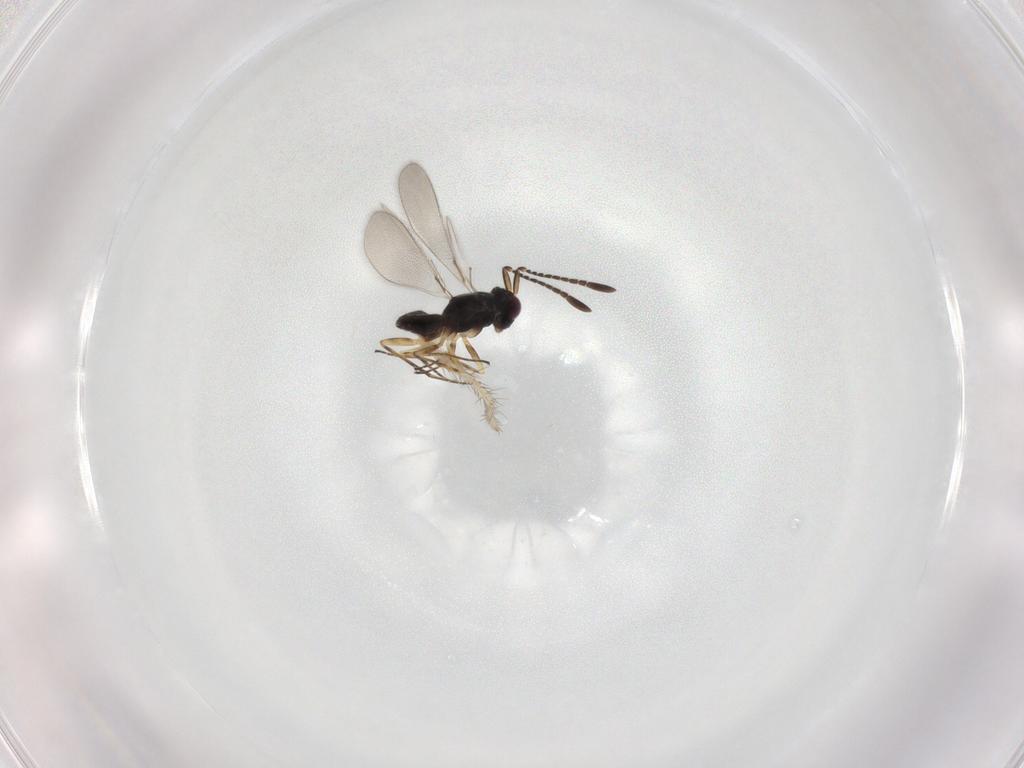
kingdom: Animalia
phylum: Arthropoda
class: Insecta
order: Hymenoptera
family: Mymaridae
